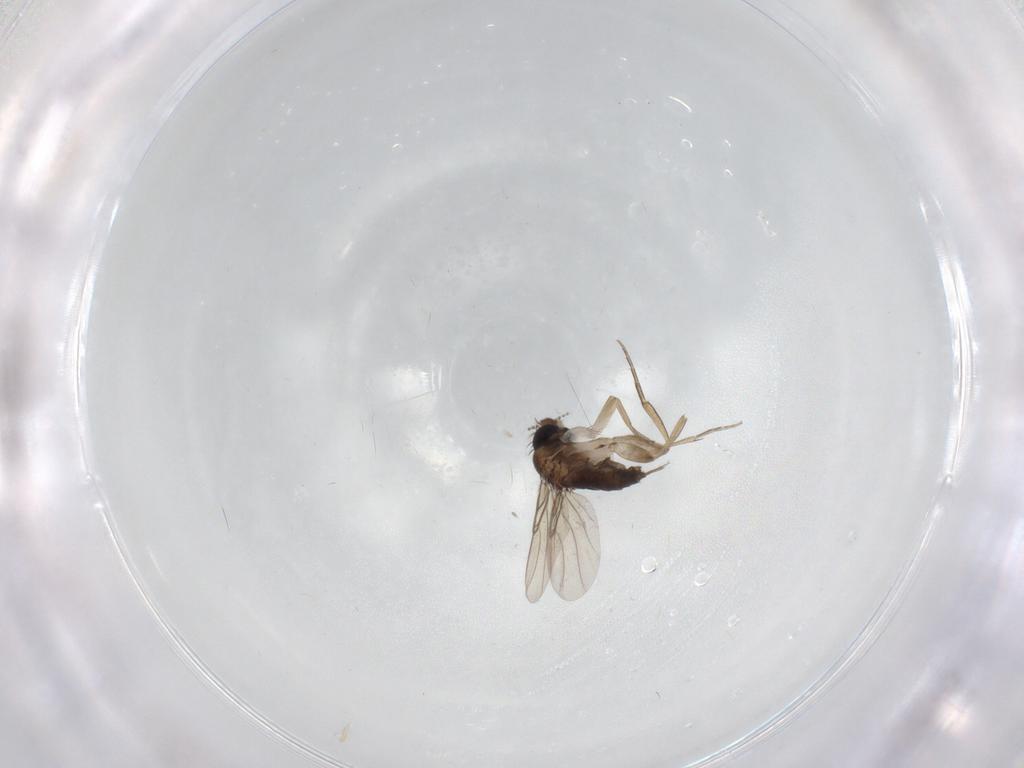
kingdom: Animalia
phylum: Arthropoda
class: Insecta
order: Diptera
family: Phoridae
